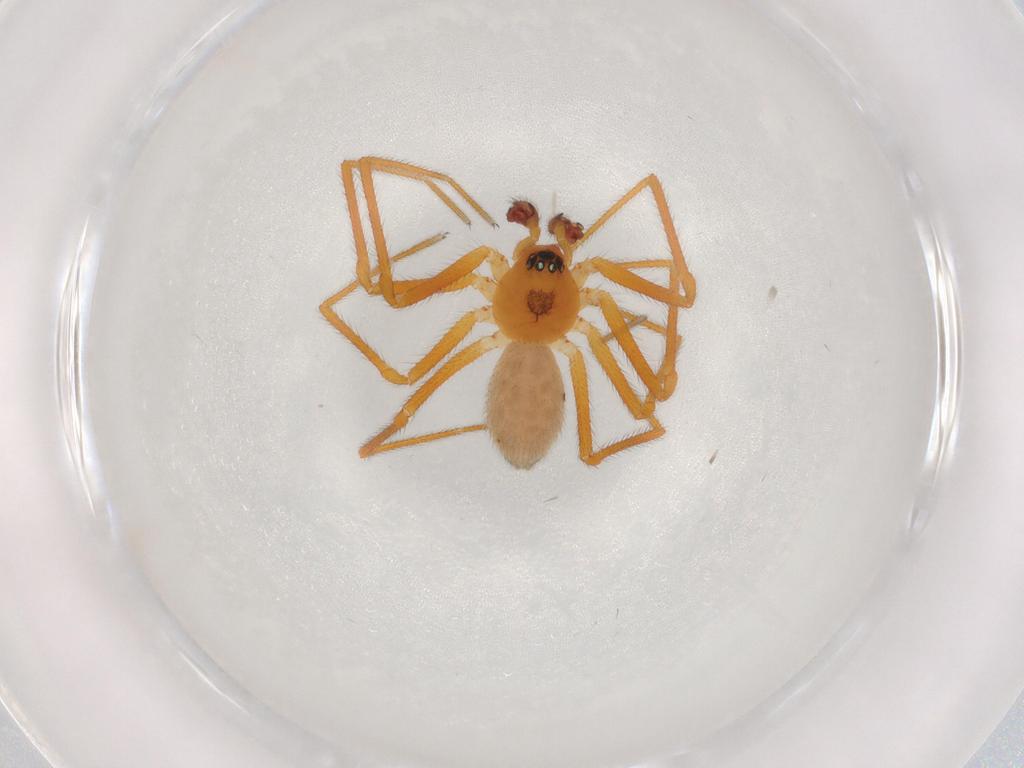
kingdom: Animalia
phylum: Arthropoda
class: Arachnida
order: Araneae
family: Linyphiidae
